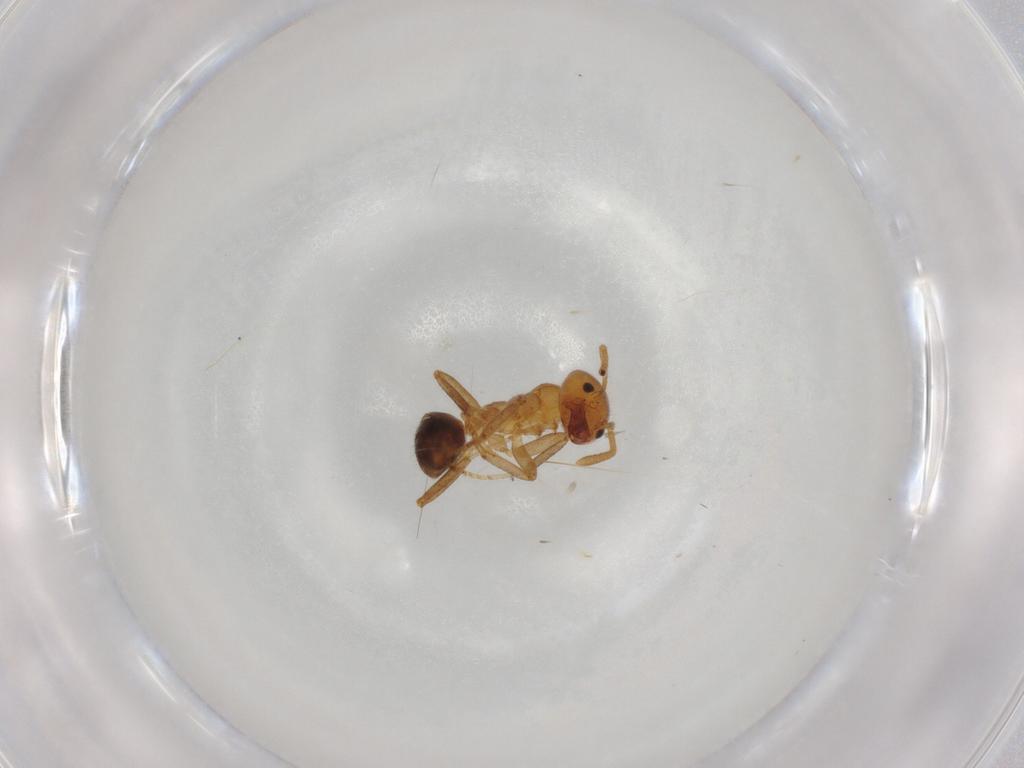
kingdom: Animalia
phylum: Arthropoda
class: Insecta
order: Hymenoptera
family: Formicidae
